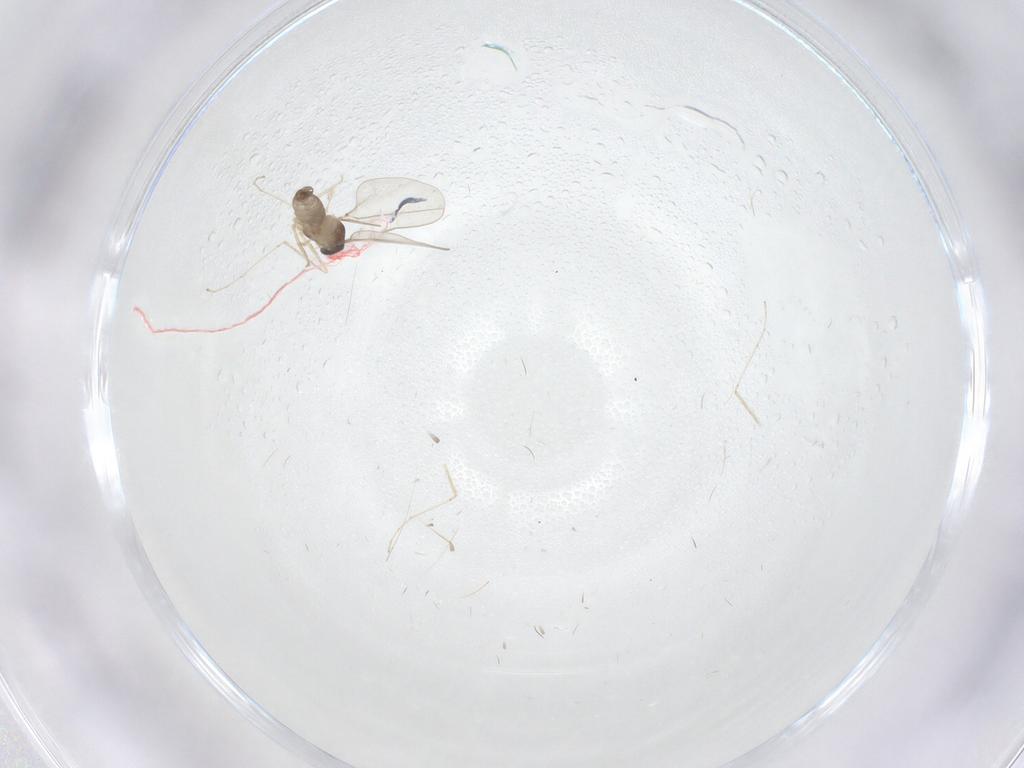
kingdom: Animalia
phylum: Arthropoda
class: Insecta
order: Diptera
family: Cecidomyiidae
